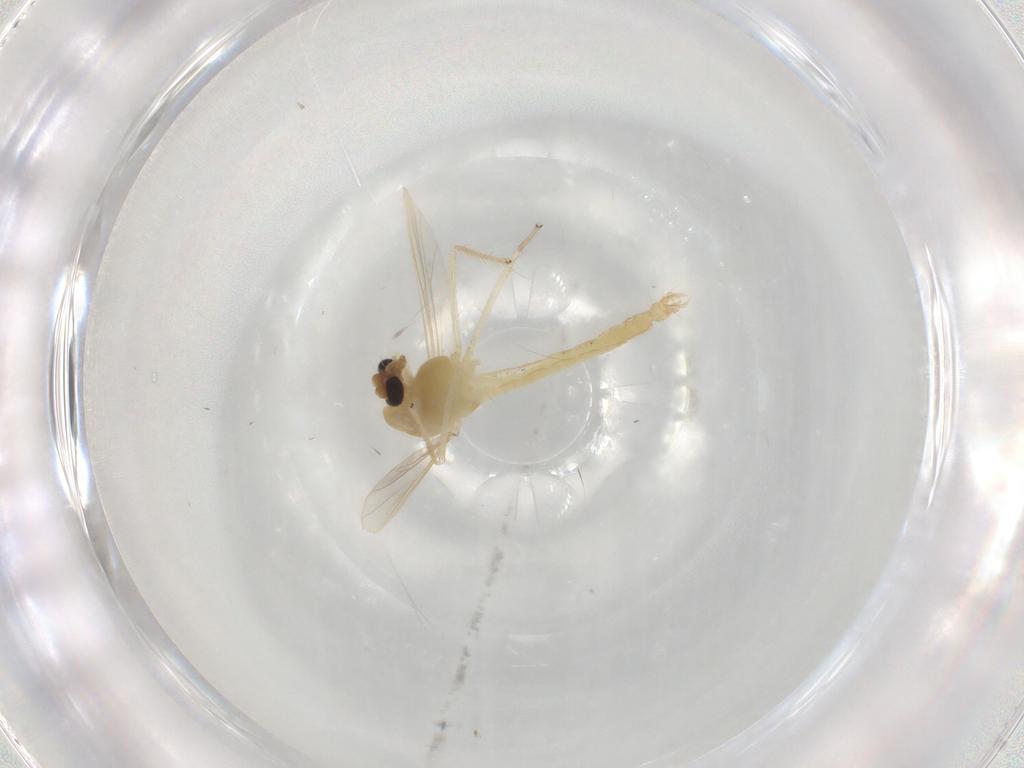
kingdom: Animalia
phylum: Arthropoda
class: Insecta
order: Diptera
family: Chironomidae
